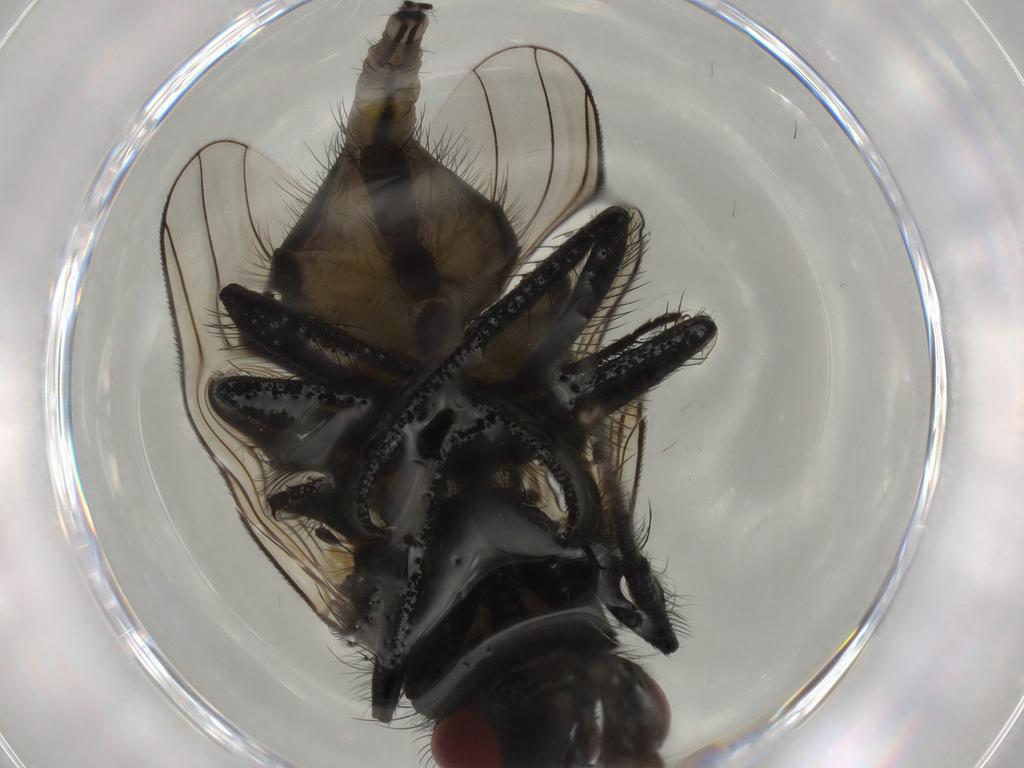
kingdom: Animalia
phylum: Arthropoda
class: Insecta
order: Diptera
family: Muscidae
